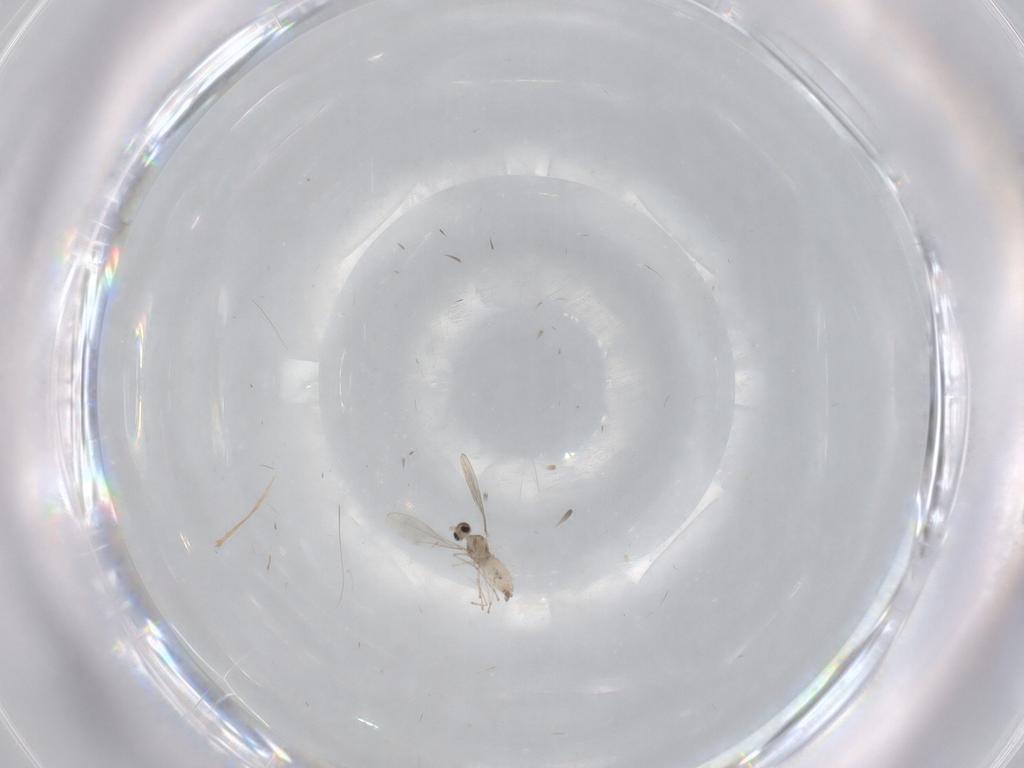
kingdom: Animalia
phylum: Arthropoda
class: Insecta
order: Diptera
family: Cecidomyiidae
